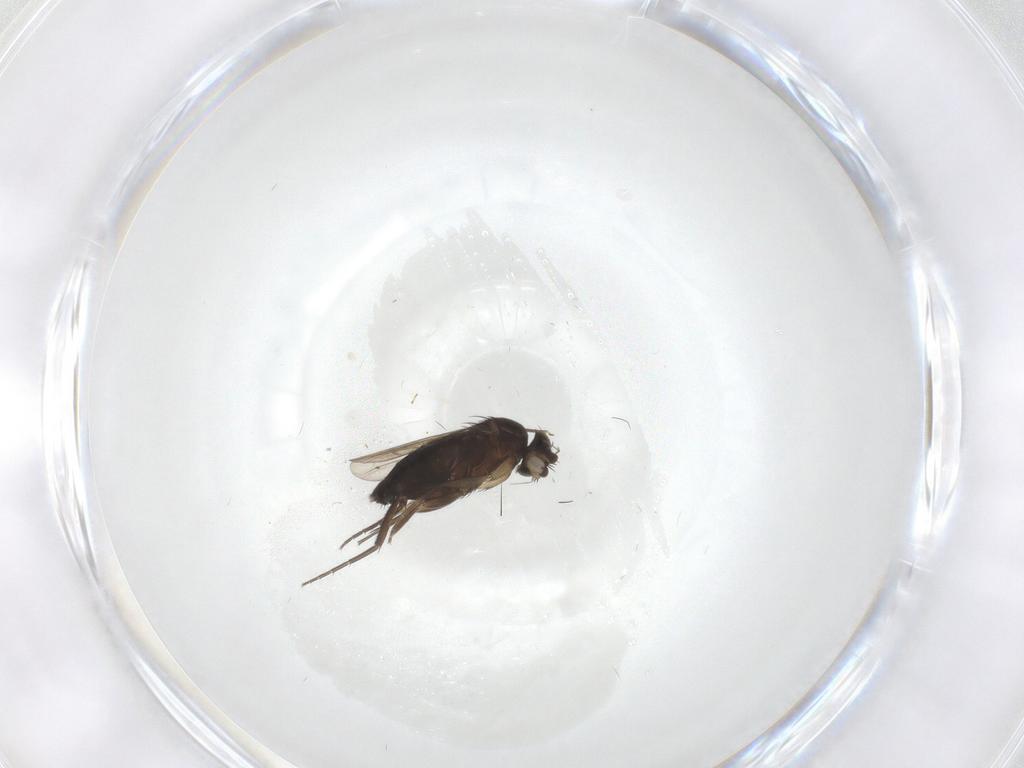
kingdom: Animalia
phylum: Arthropoda
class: Insecta
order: Diptera
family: Phoridae
